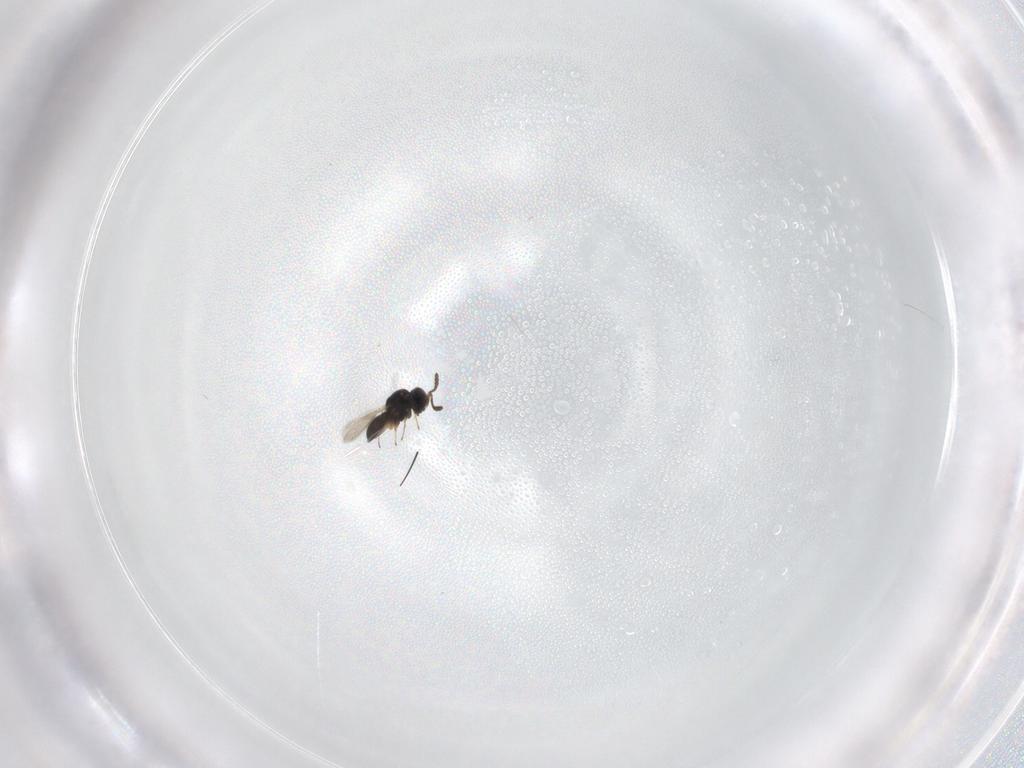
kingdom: Animalia
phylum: Arthropoda
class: Insecta
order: Hymenoptera
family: Scelionidae
